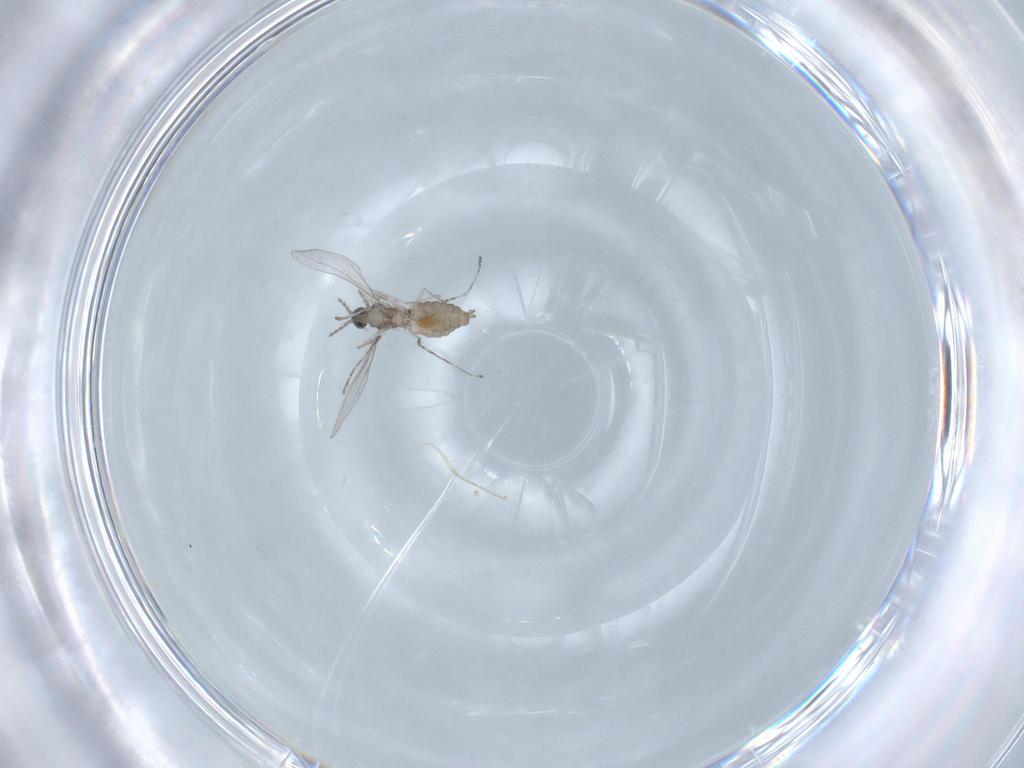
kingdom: Animalia
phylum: Arthropoda
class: Insecta
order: Diptera
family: Cecidomyiidae
